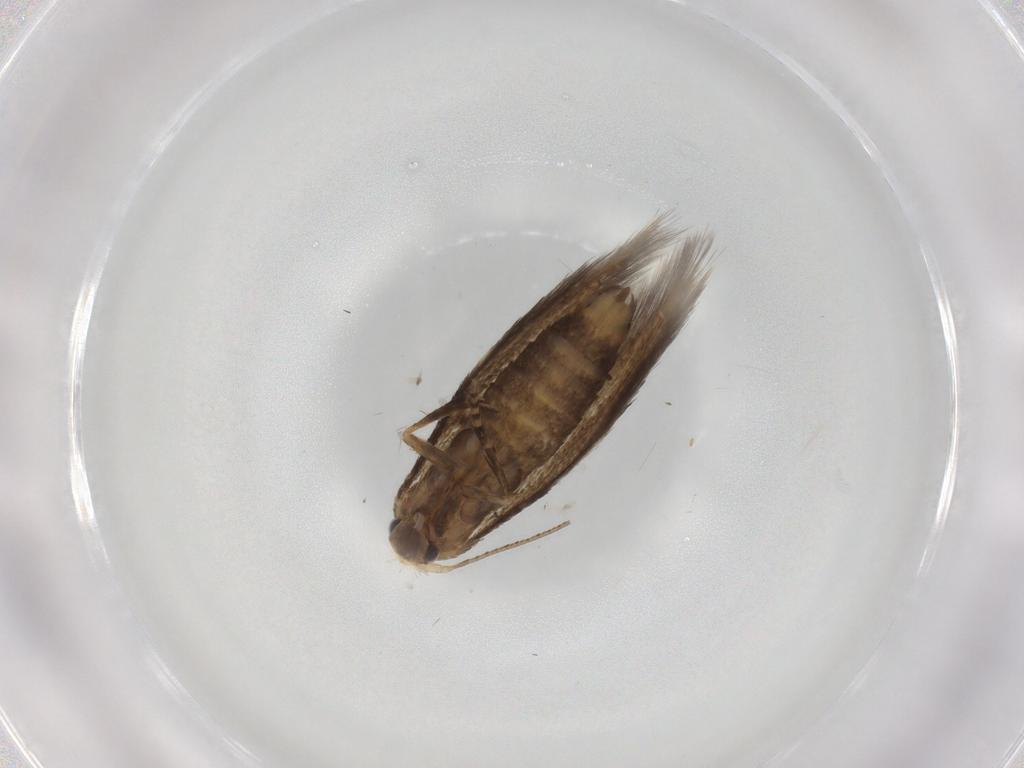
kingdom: Animalia
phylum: Arthropoda
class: Insecta
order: Lepidoptera
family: Bucculatricidae
